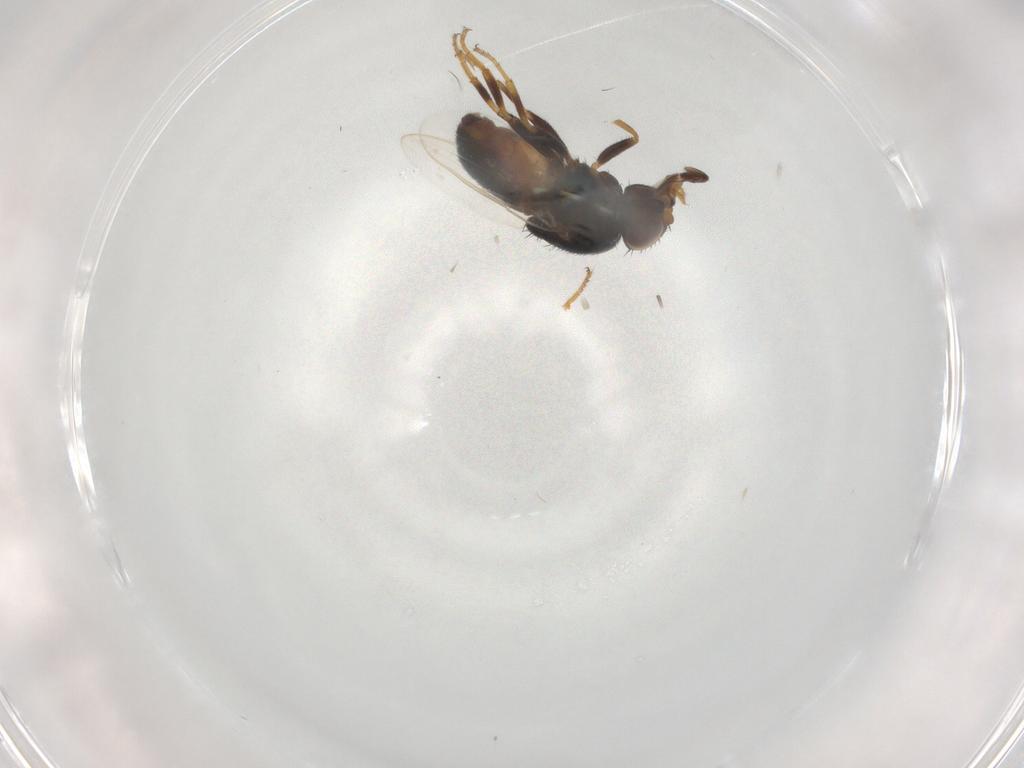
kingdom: Animalia
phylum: Arthropoda
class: Insecta
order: Diptera
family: Chloropidae
